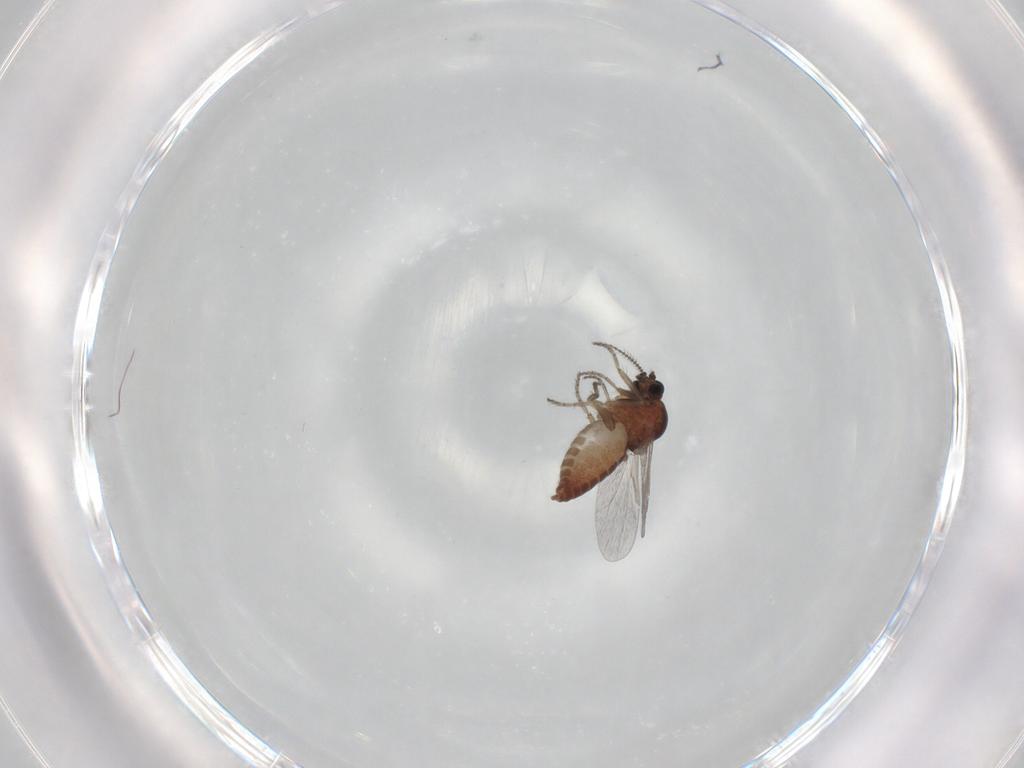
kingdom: Animalia
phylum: Arthropoda
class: Insecta
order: Diptera
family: Ceratopogonidae
